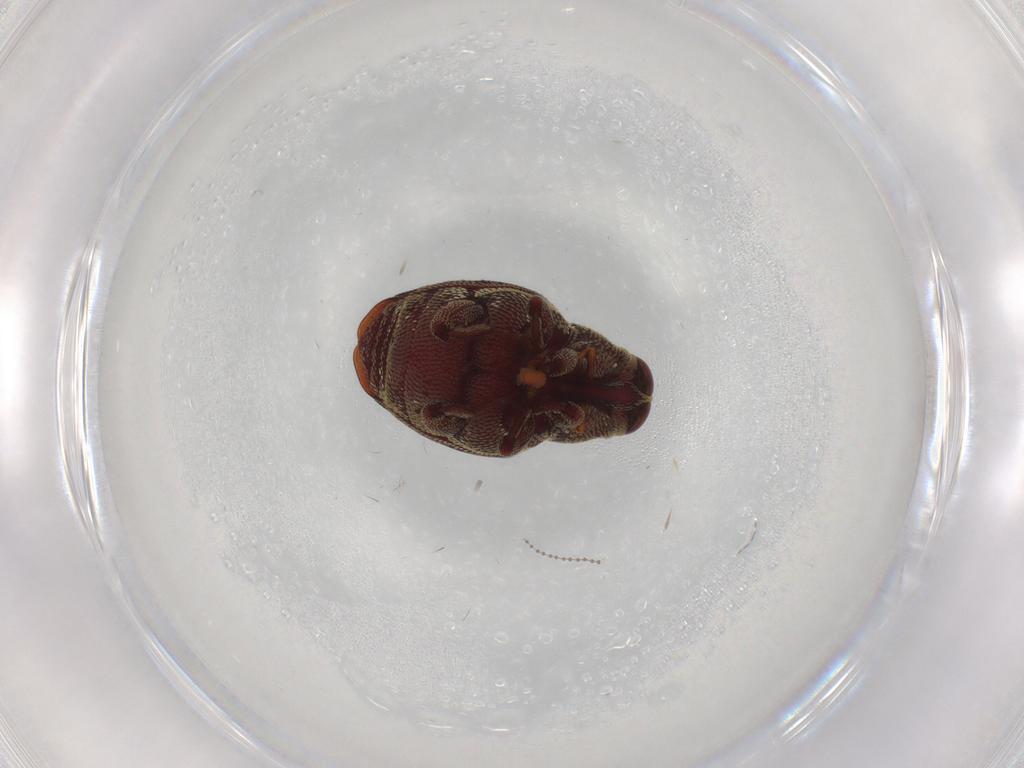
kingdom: Animalia
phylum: Arthropoda
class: Insecta
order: Coleoptera
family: Curculionidae
